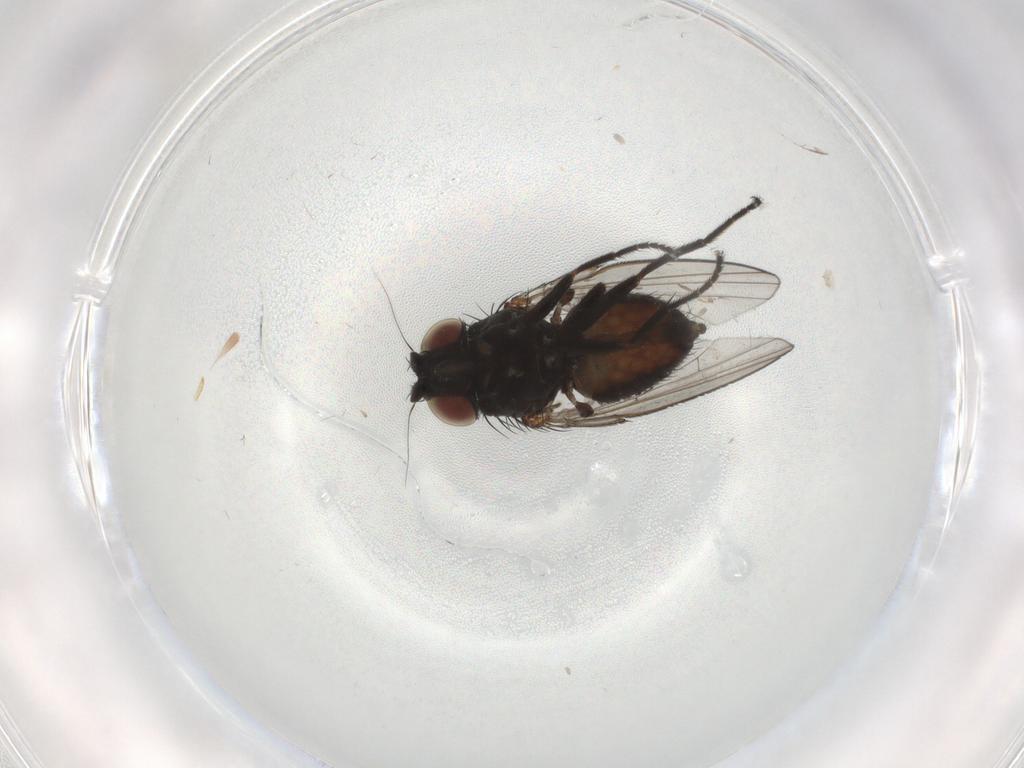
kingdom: Animalia
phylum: Arthropoda
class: Insecta
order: Diptera
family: Milichiidae
